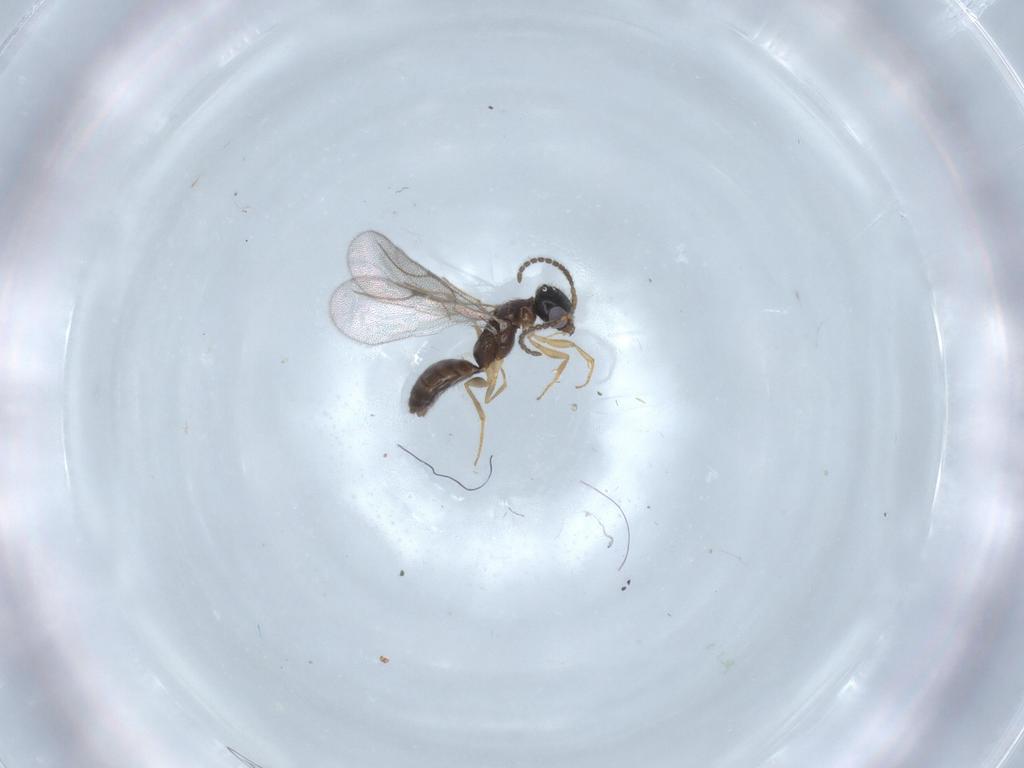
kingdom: Animalia
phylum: Arthropoda
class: Insecta
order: Hymenoptera
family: Bethylidae
